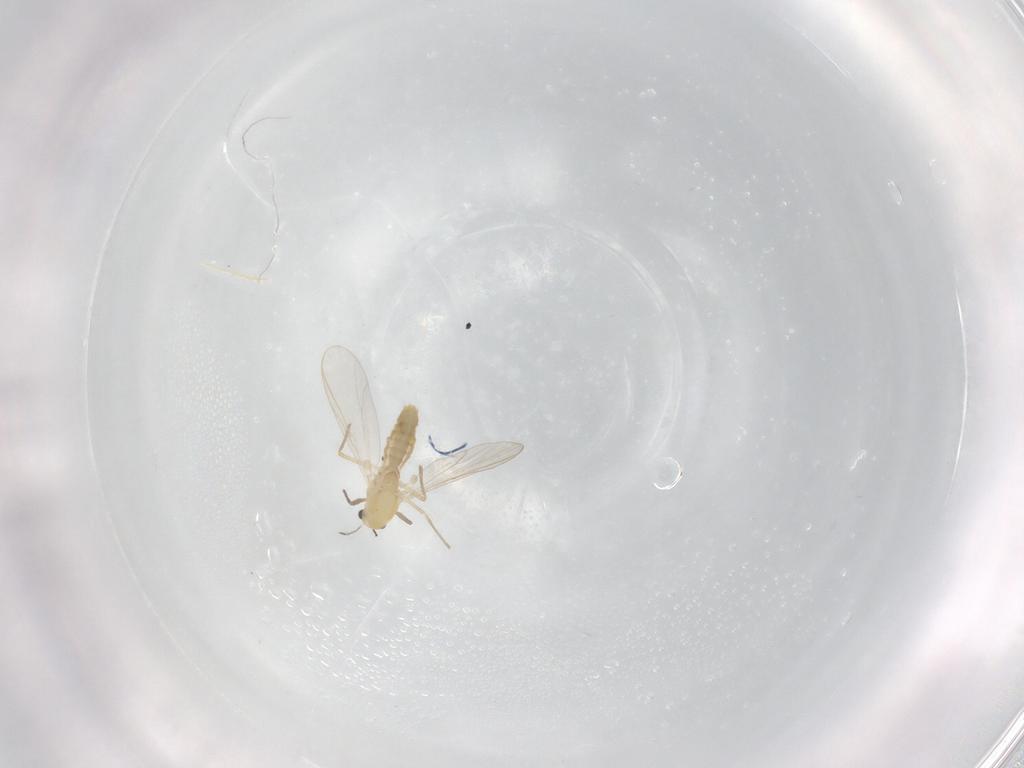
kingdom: Animalia
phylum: Arthropoda
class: Insecta
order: Diptera
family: Chironomidae
